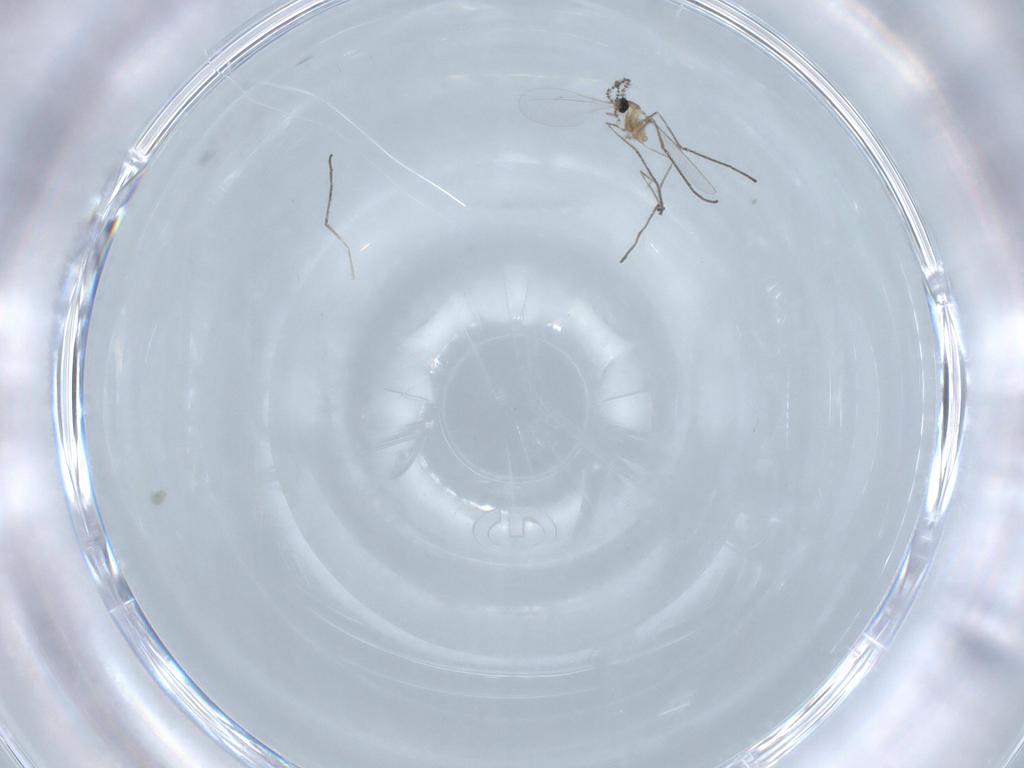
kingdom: Animalia
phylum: Arthropoda
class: Insecta
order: Diptera
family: Cecidomyiidae
